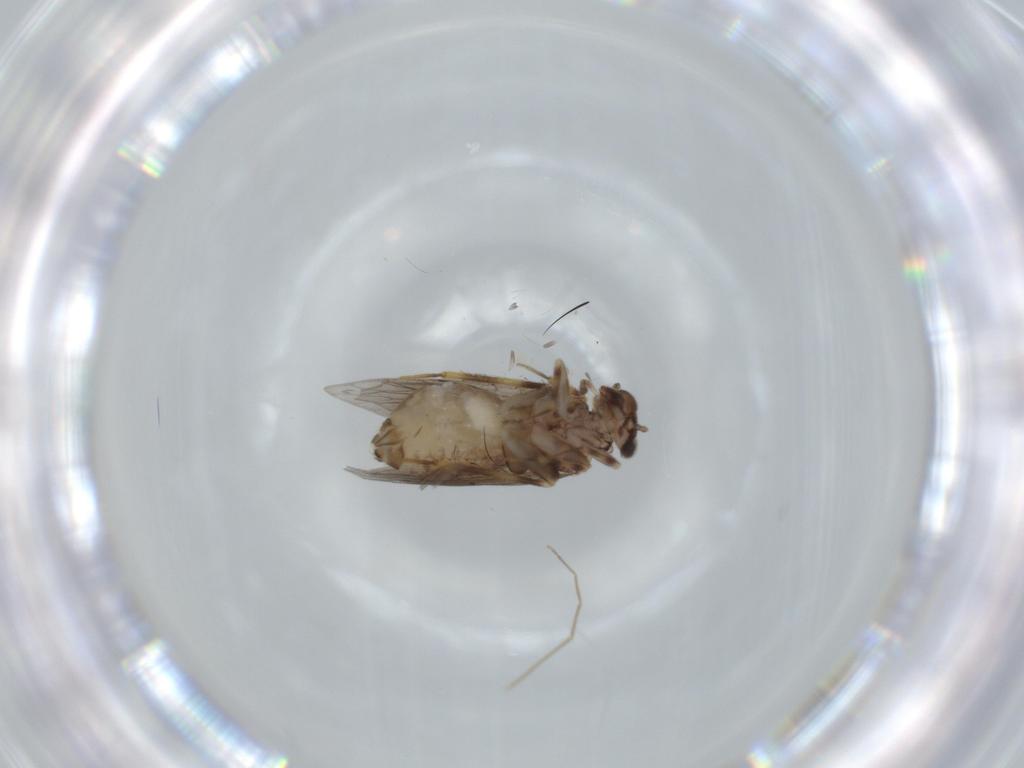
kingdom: Animalia
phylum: Arthropoda
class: Insecta
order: Psocodea
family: Lepidopsocidae
